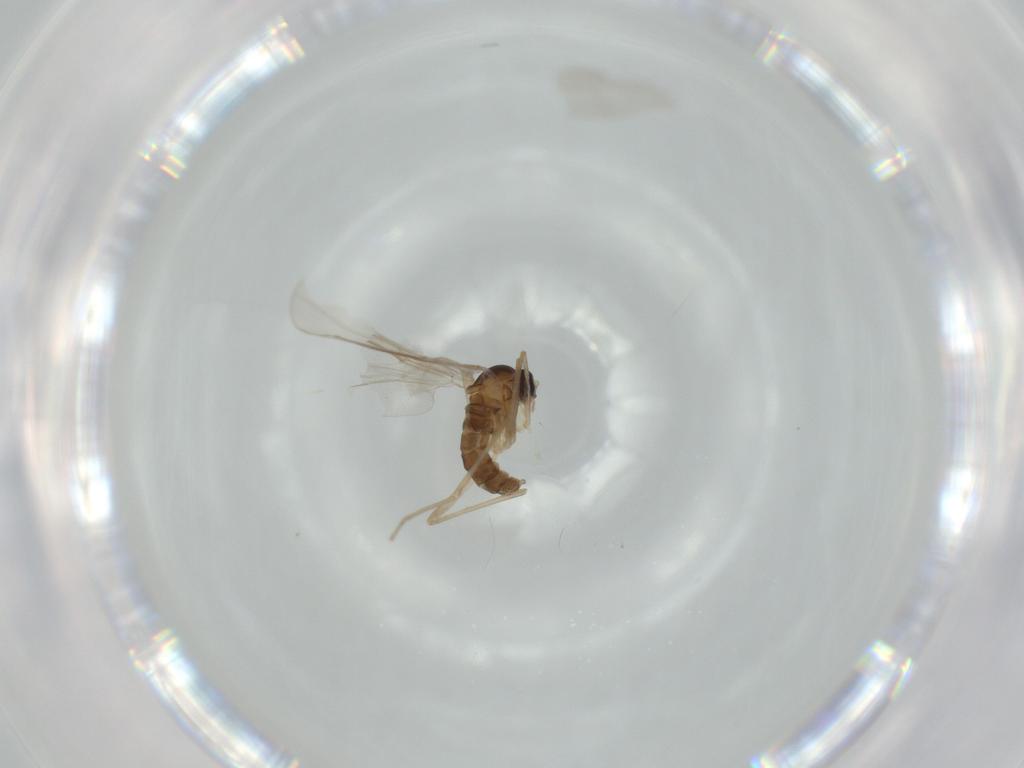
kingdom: Animalia
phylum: Arthropoda
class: Insecta
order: Diptera
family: Cecidomyiidae
